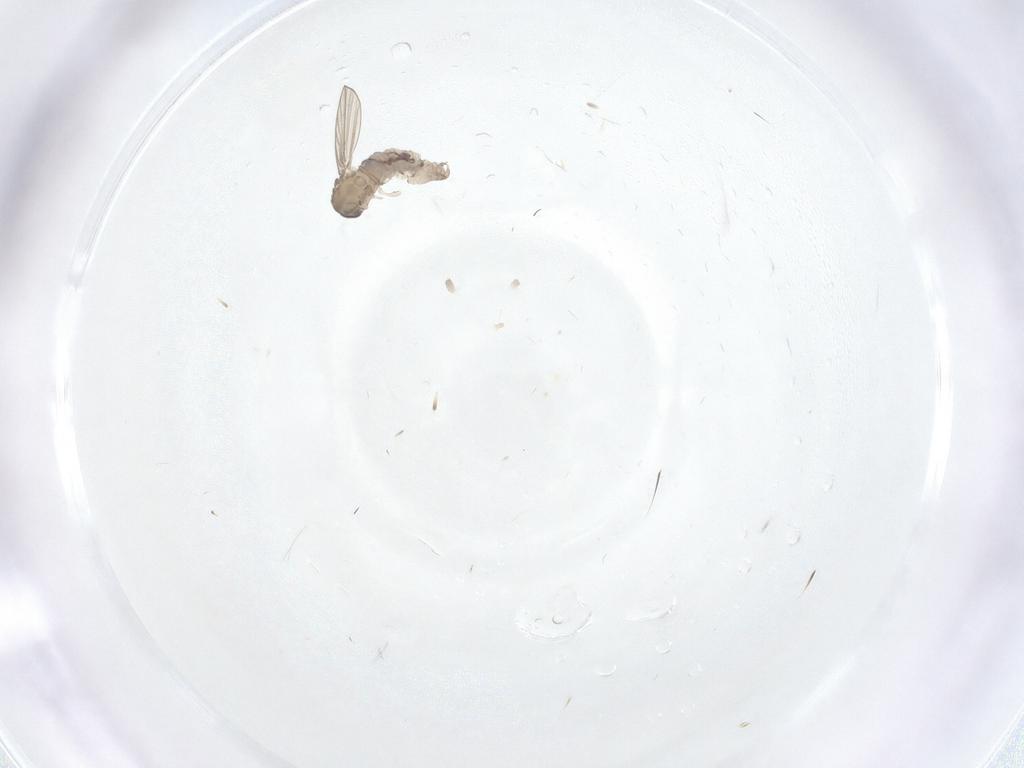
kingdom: Animalia
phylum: Arthropoda
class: Insecta
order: Diptera
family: Psychodidae
